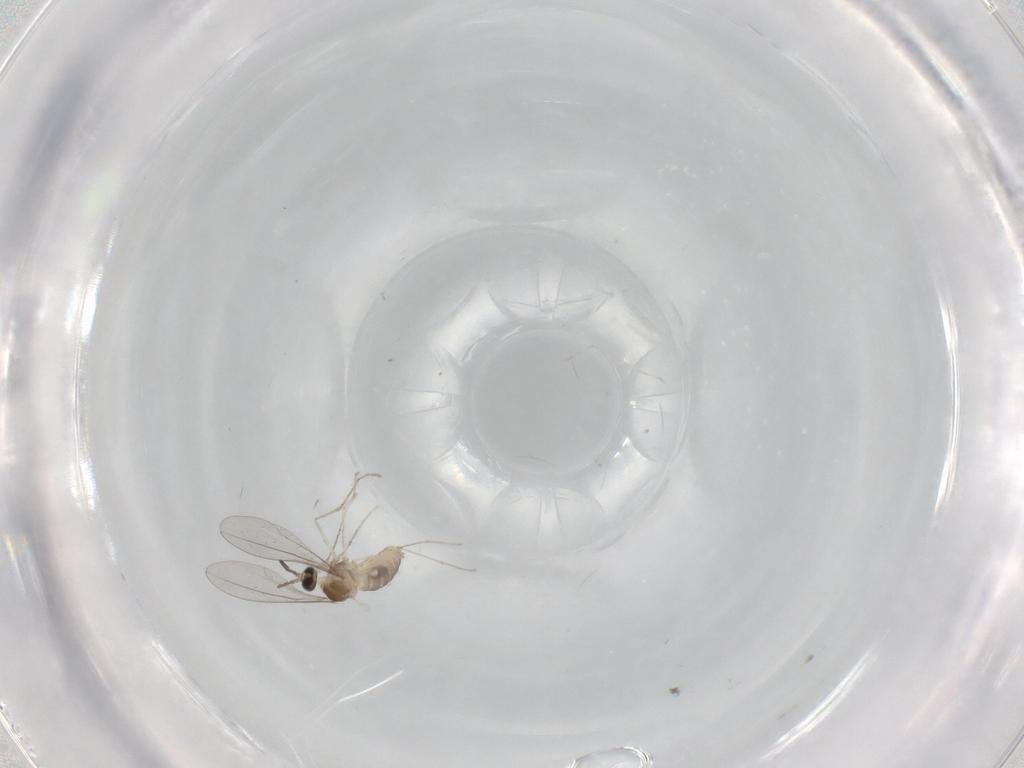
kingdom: Animalia
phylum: Arthropoda
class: Insecta
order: Diptera
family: Cecidomyiidae
